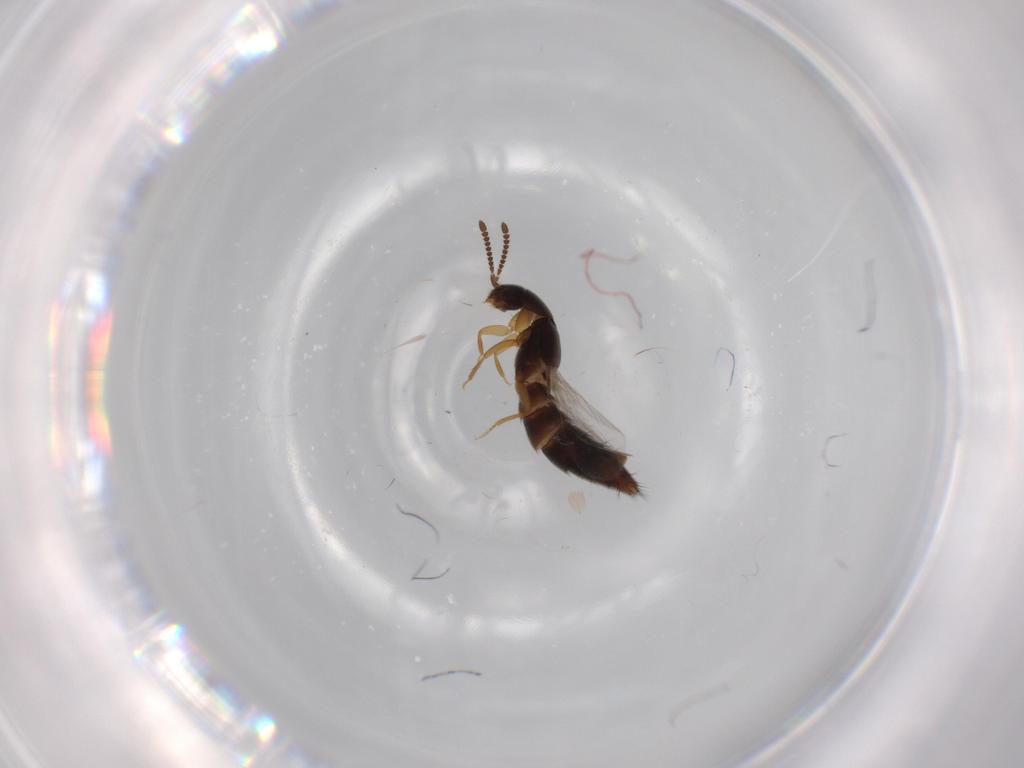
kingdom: Animalia
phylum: Arthropoda
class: Insecta
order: Coleoptera
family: Staphylinidae
